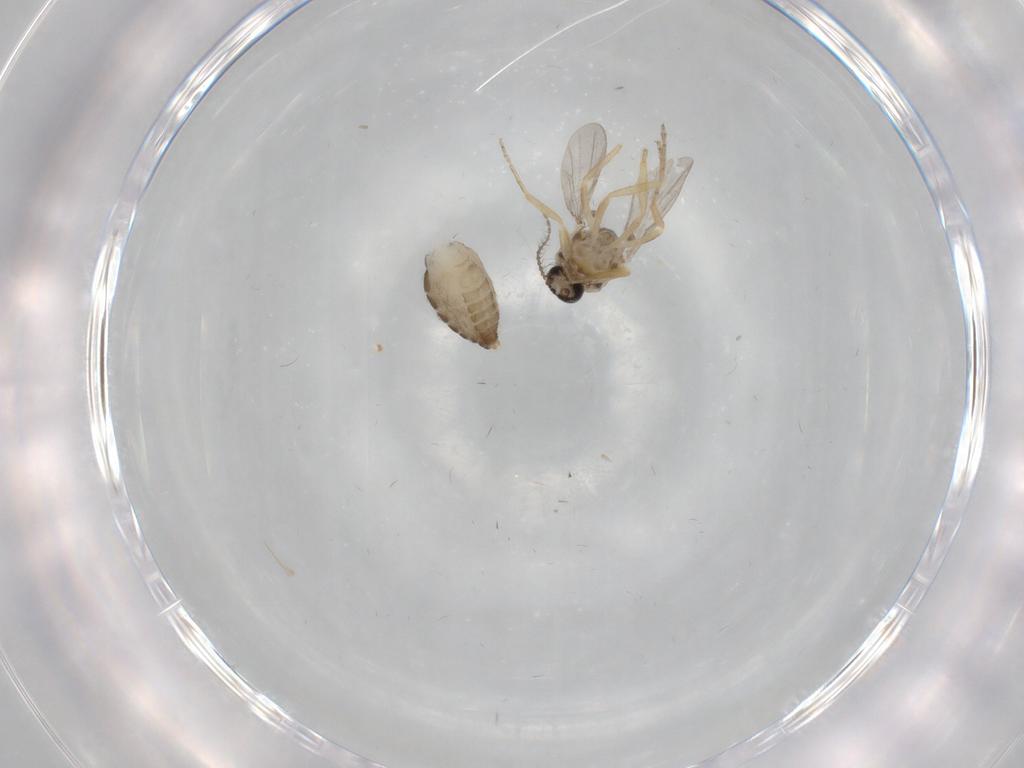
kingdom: Animalia
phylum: Arthropoda
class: Insecta
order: Diptera
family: Ceratopogonidae
